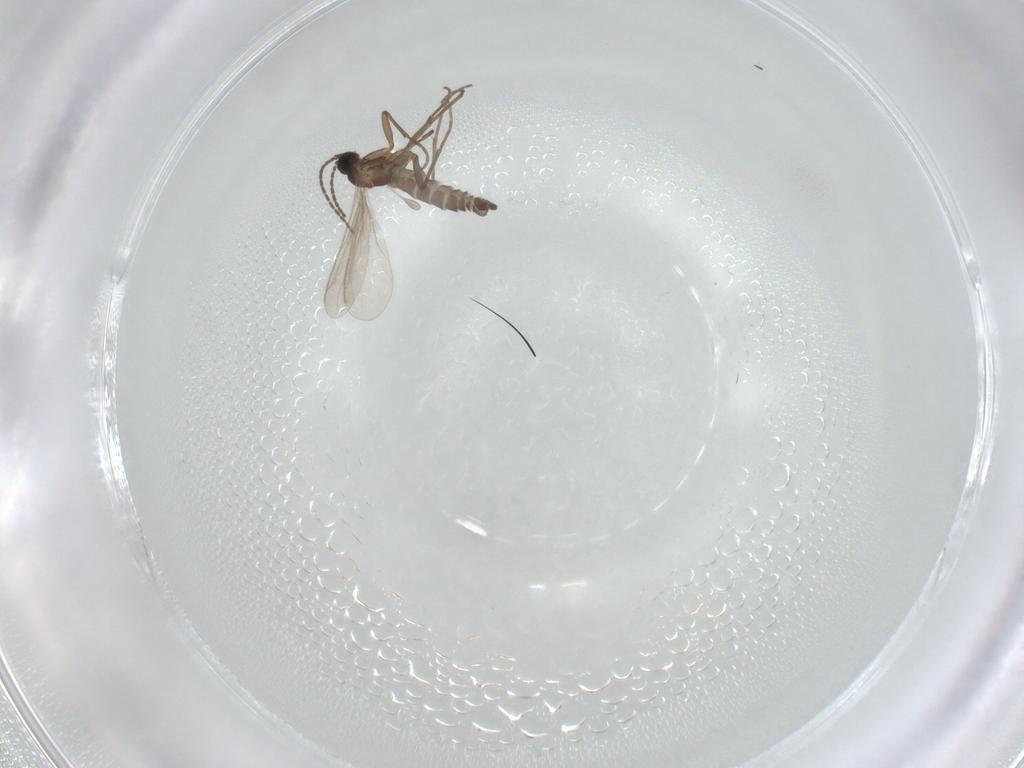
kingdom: Animalia
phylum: Arthropoda
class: Insecta
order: Diptera
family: Sciaridae
